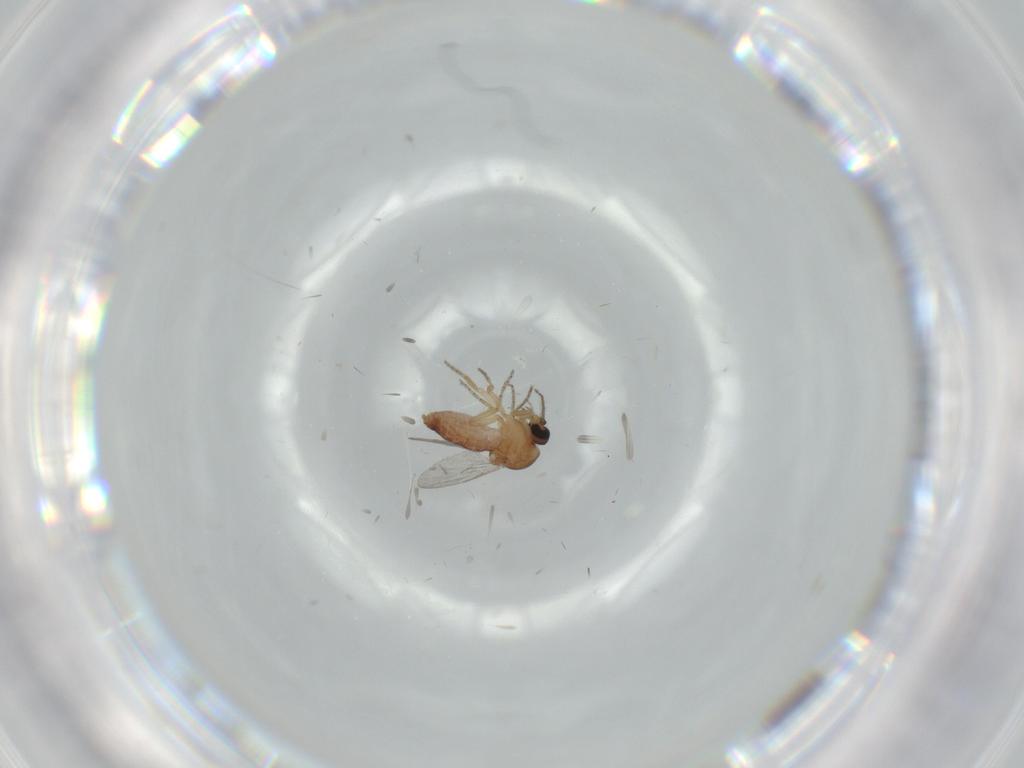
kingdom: Animalia
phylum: Arthropoda
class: Insecta
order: Diptera
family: Ceratopogonidae
